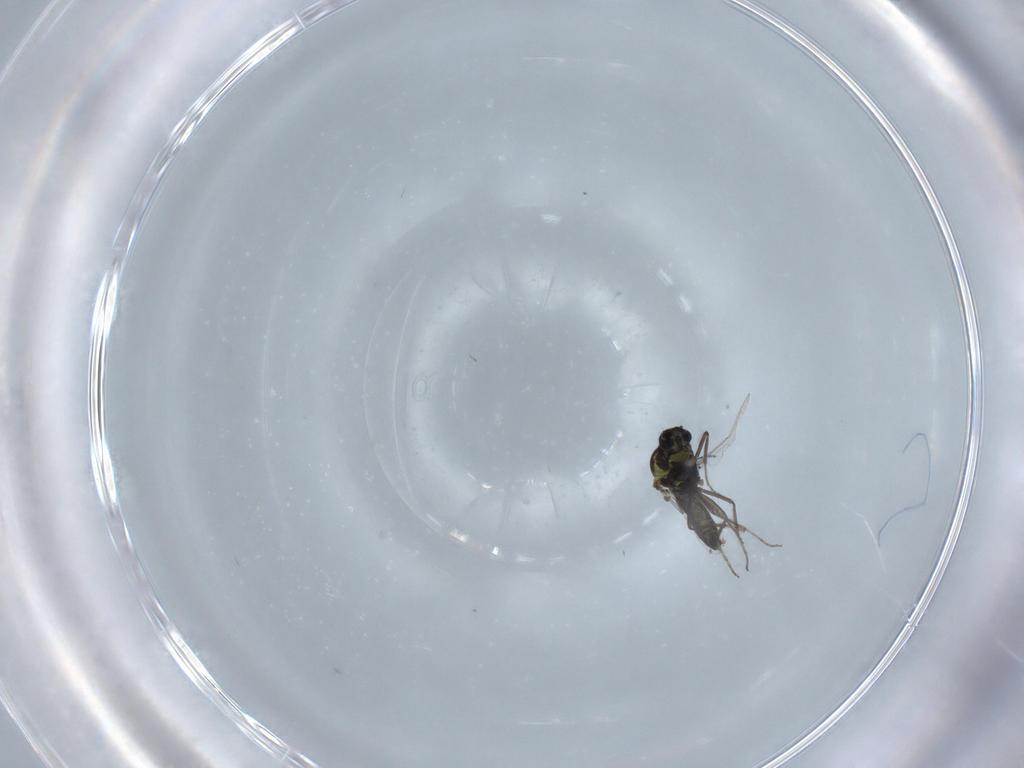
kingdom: Animalia
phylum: Arthropoda
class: Insecta
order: Diptera
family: Ceratopogonidae
